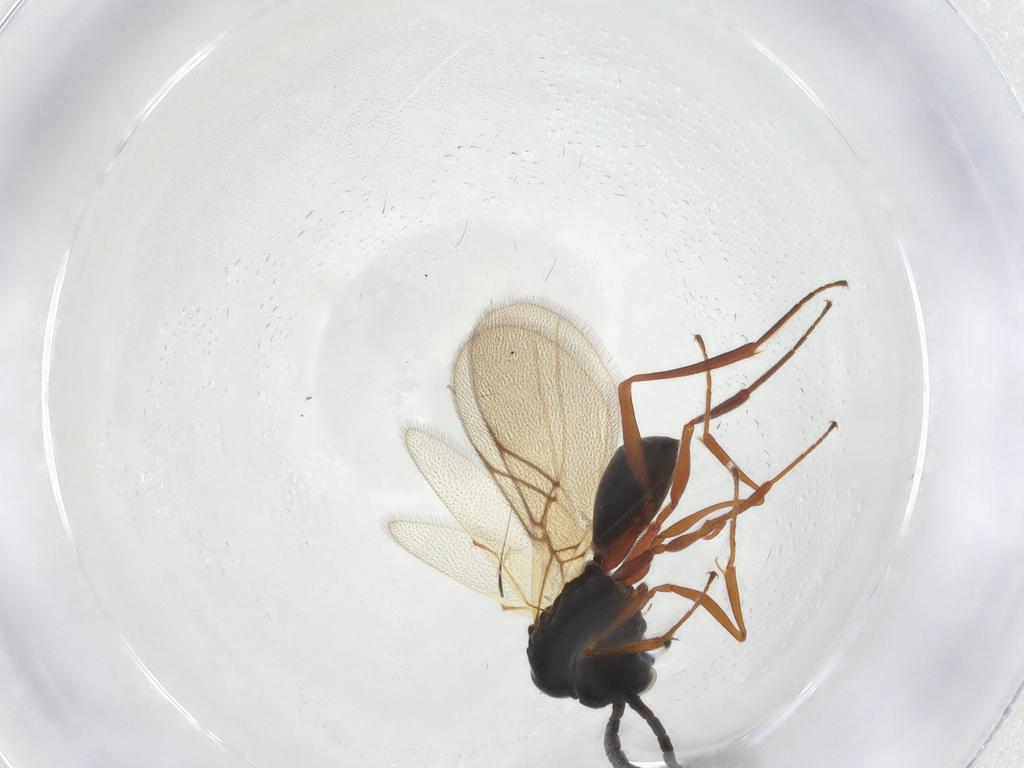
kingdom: Animalia
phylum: Arthropoda
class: Insecta
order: Hymenoptera
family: Figitidae
